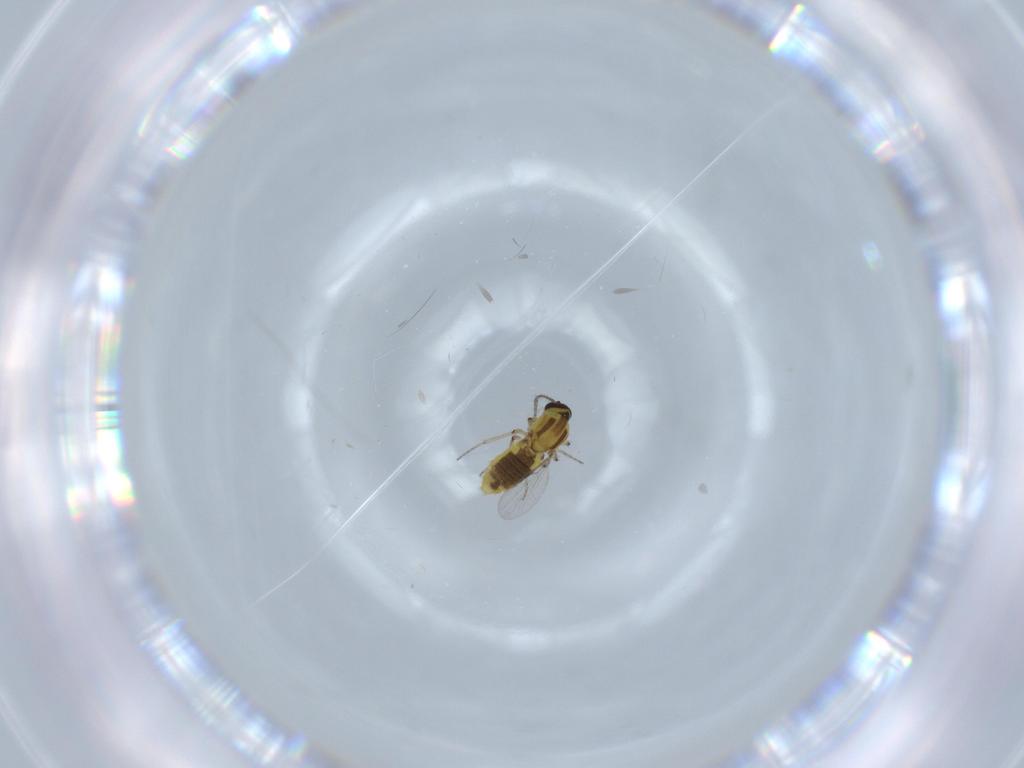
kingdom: Animalia
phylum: Arthropoda
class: Insecta
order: Diptera
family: Ceratopogonidae
